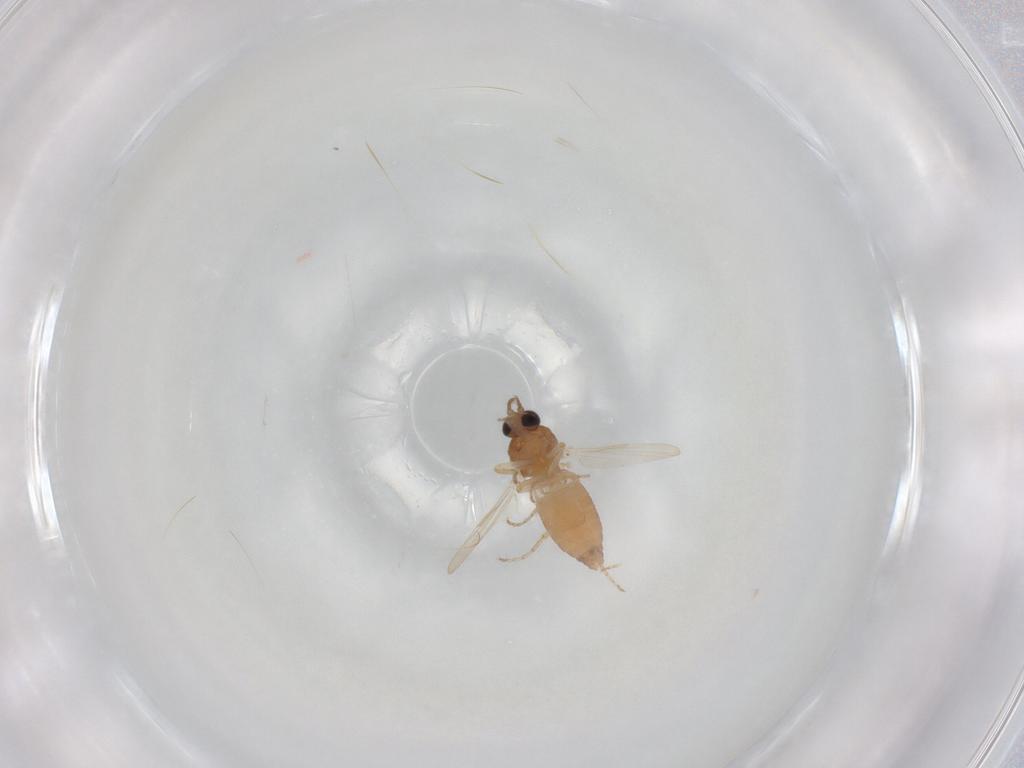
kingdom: Animalia
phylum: Arthropoda
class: Insecta
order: Diptera
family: Dolichopodidae
